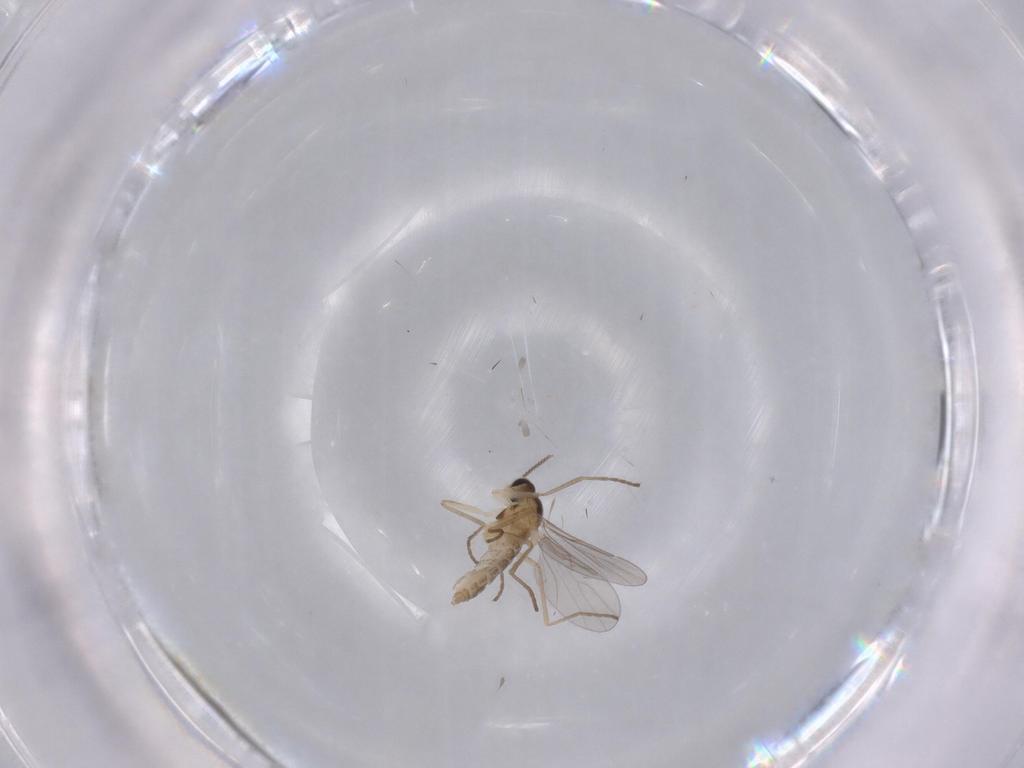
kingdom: Animalia
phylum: Arthropoda
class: Insecta
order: Diptera
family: Cecidomyiidae
